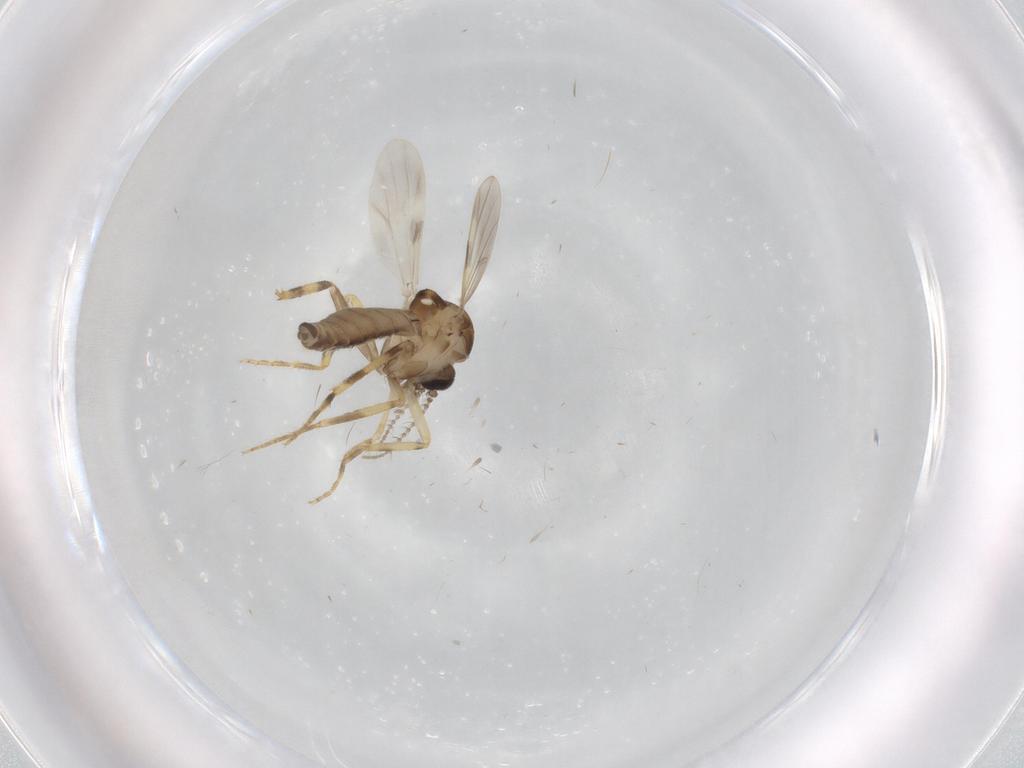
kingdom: Animalia
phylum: Arthropoda
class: Insecta
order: Diptera
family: Ceratopogonidae
